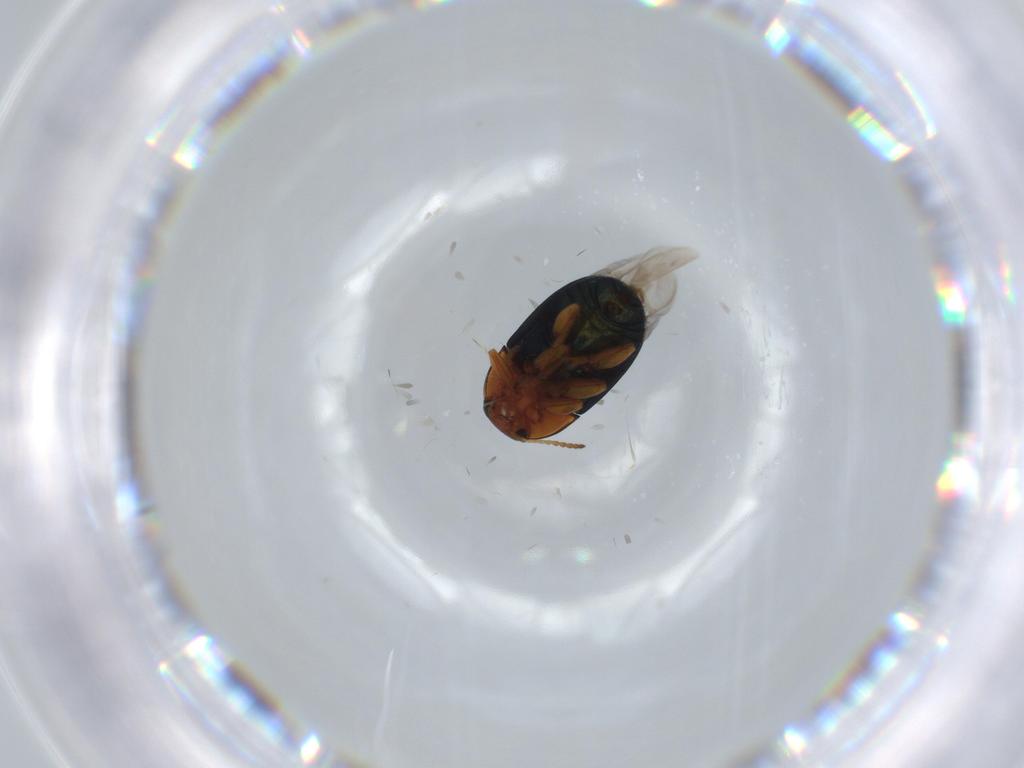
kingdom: Animalia
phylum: Arthropoda
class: Insecta
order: Coleoptera
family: Chrysomelidae
